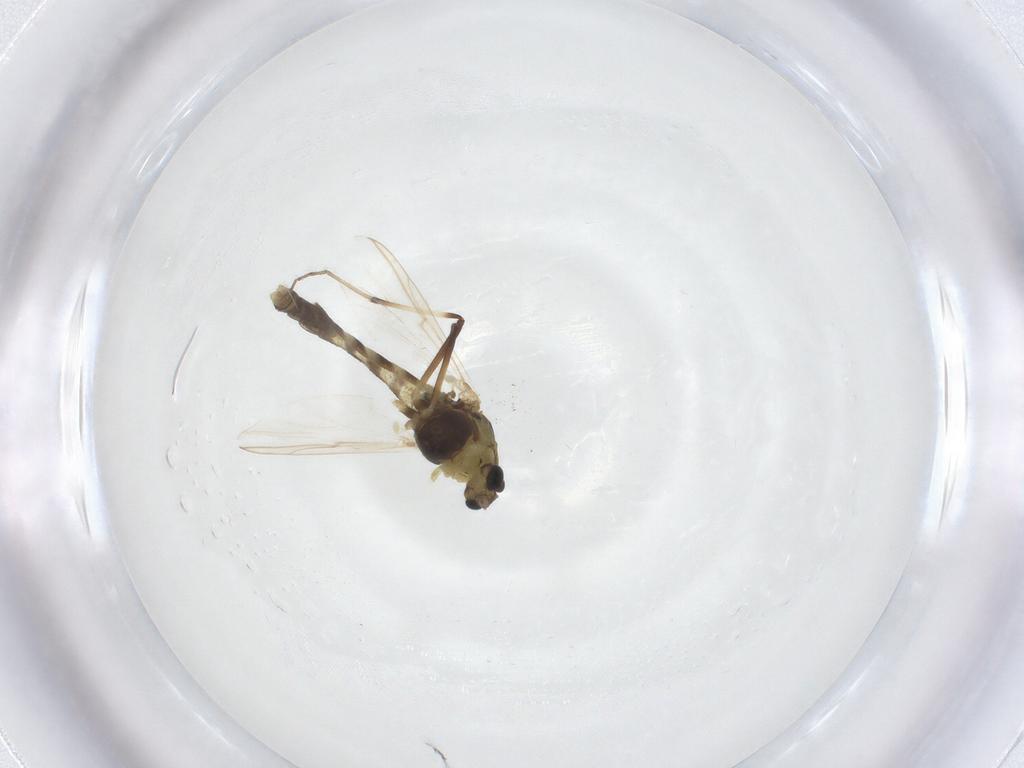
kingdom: Animalia
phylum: Arthropoda
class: Insecta
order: Diptera
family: Chironomidae
